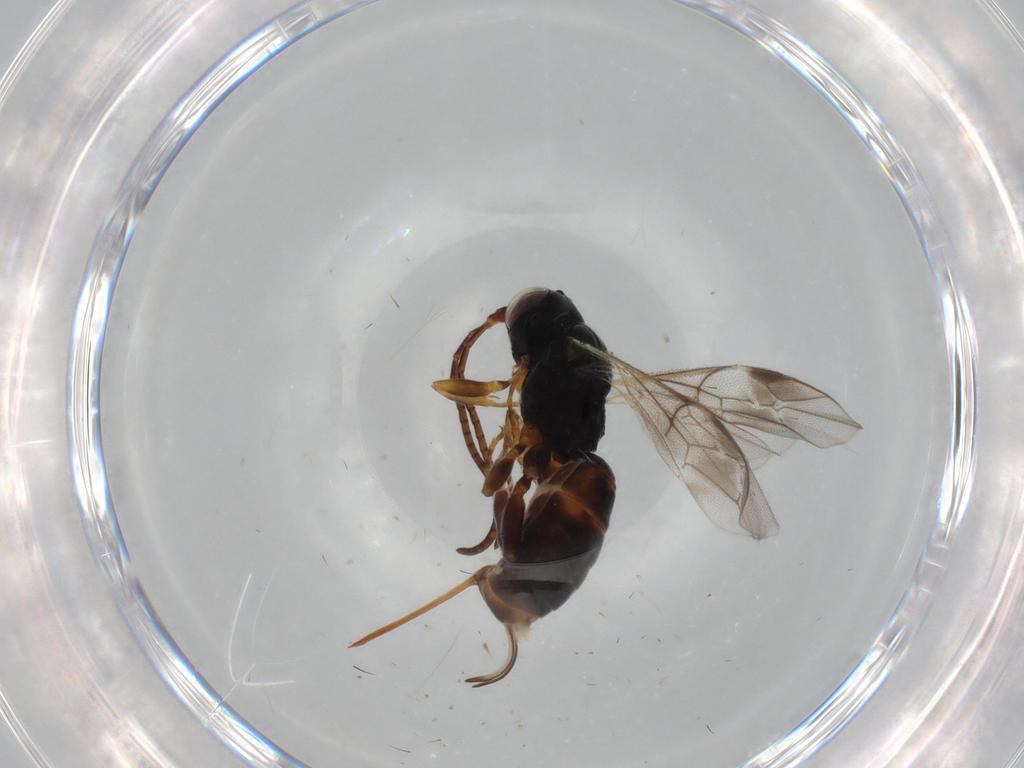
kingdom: Animalia
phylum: Arthropoda
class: Insecta
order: Hymenoptera
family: Ichneumonidae
